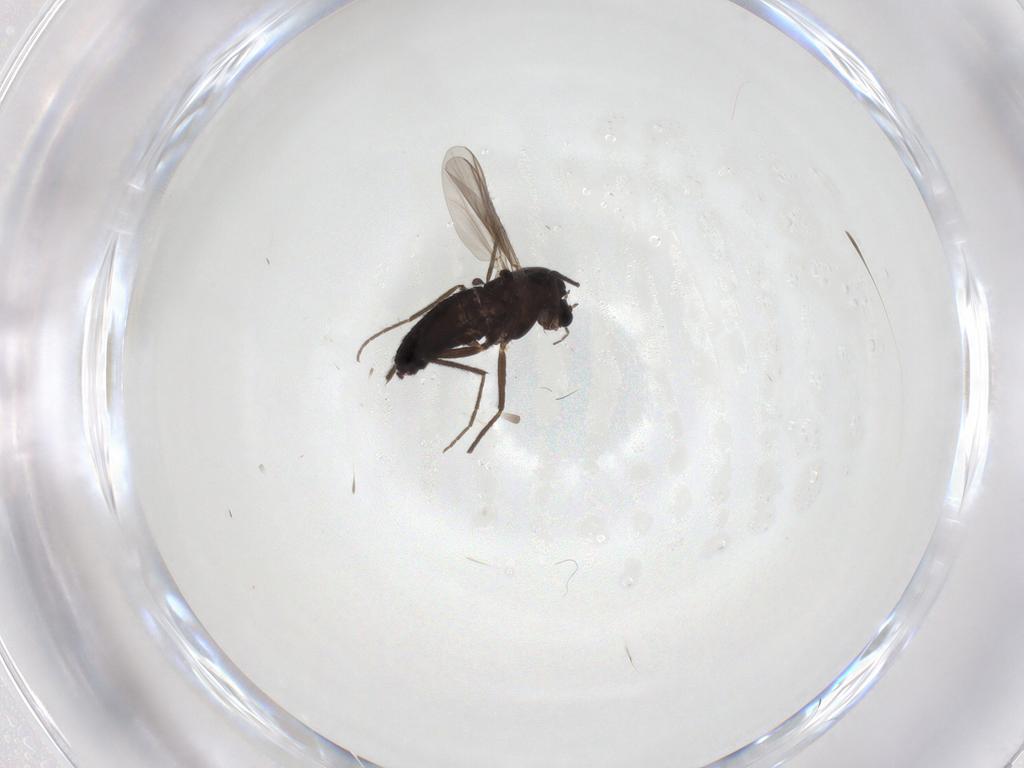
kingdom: Animalia
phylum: Arthropoda
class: Insecta
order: Diptera
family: Chironomidae
